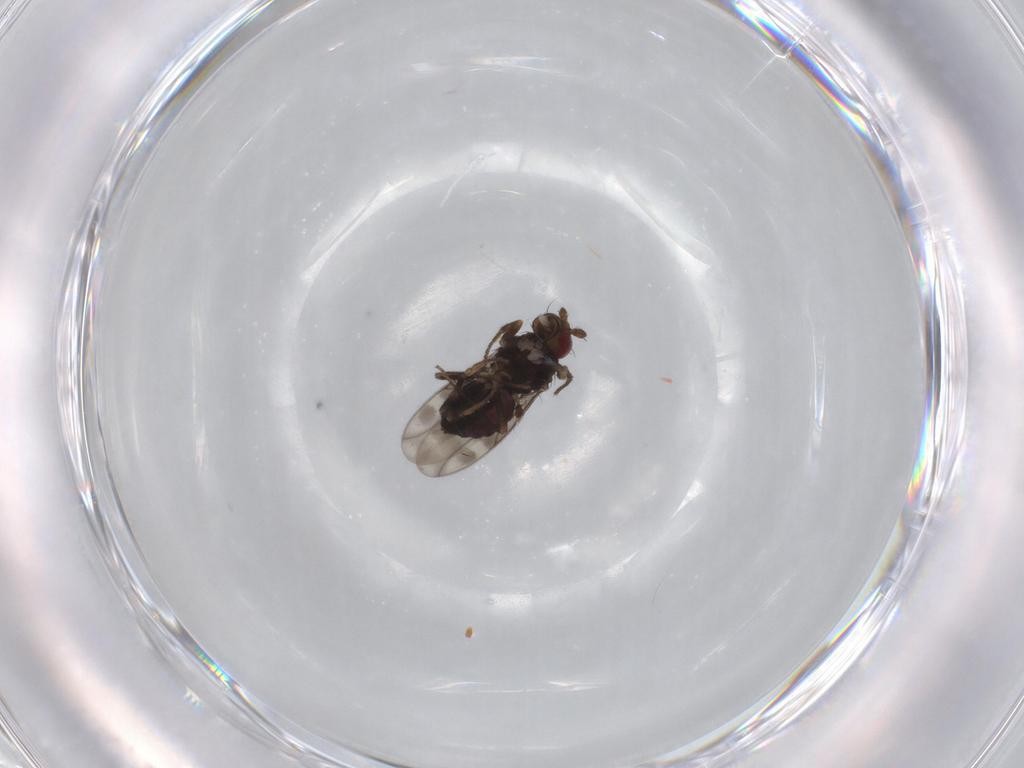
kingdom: Animalia
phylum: Arthropoda
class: Insecta
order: Diptera
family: Sphaeroceridae
